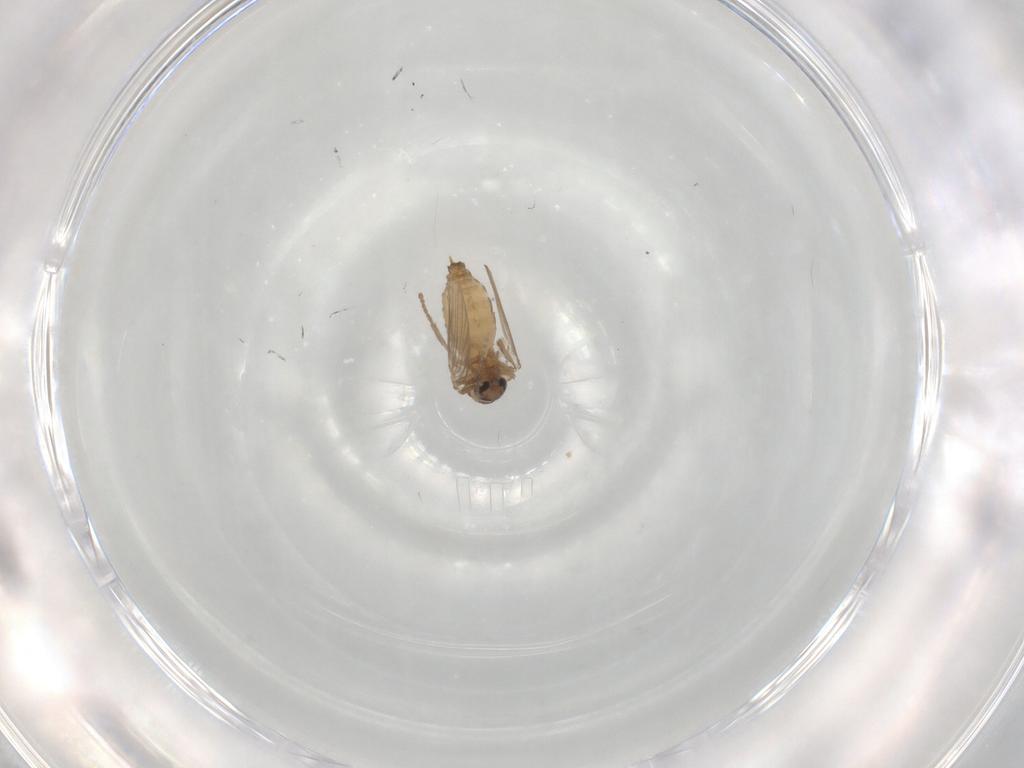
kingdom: Animalia
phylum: Arthropoda
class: Insecta
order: Diptera
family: Psychodidae
